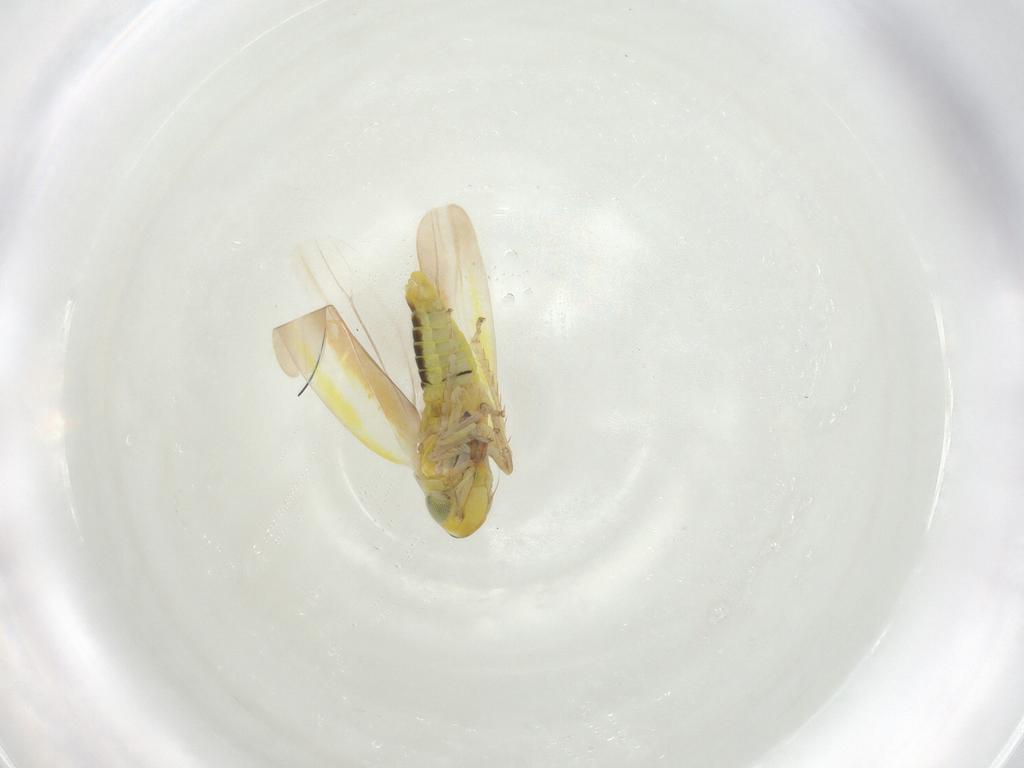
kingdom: Animalia
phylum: Arthropoda
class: Insecta
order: Hemiptera
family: Cicadellidae
